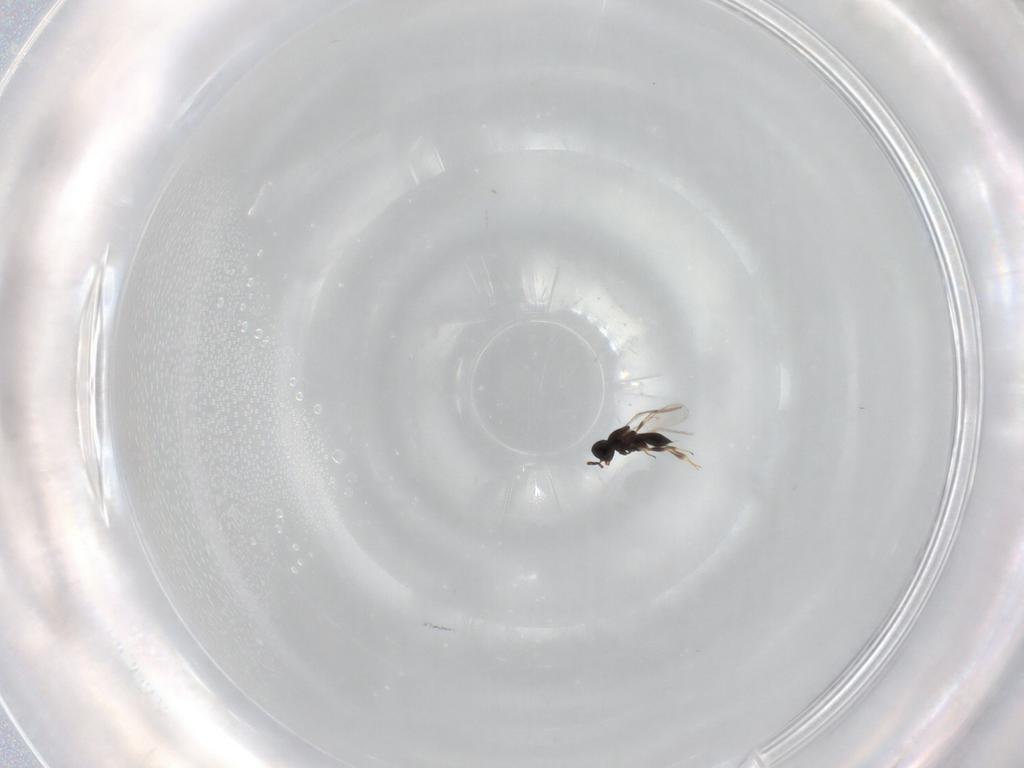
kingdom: Animalia
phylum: Arthropoda
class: Insecta
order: Hymenoptera
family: Scelionidae
